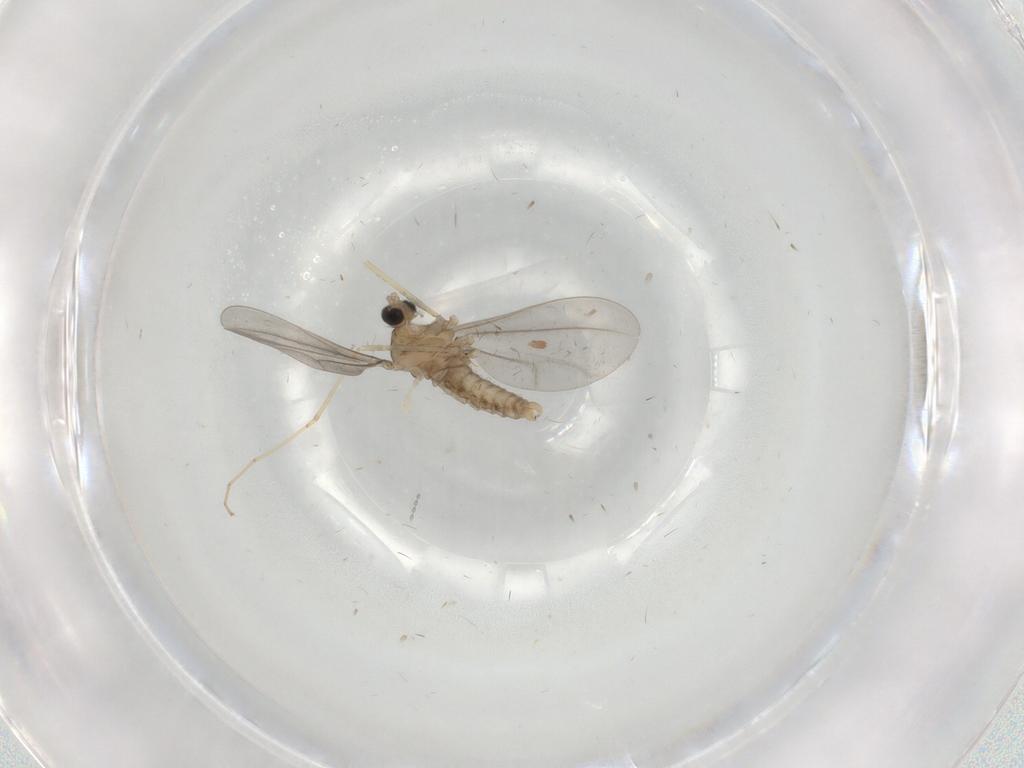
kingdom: Animalia
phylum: Arthropoda
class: Insecta
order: Diptera
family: Cecidomyiidae
